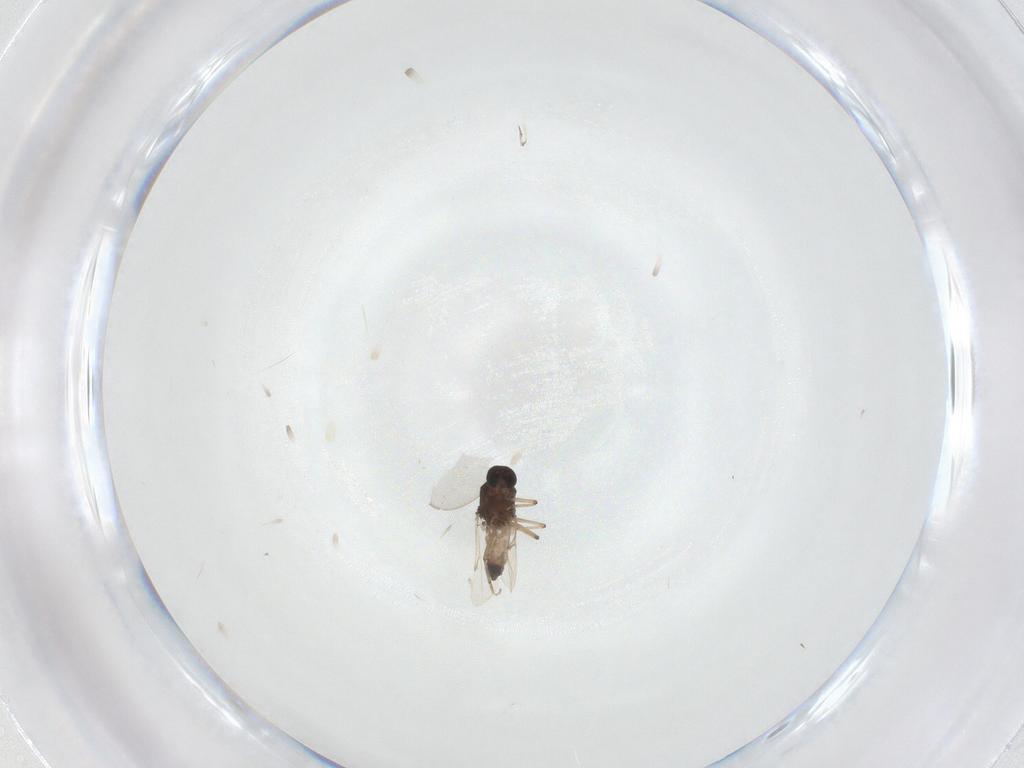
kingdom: Animalia
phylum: Arthropoda
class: Insecta
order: Diptera
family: Ceratopogonidae
